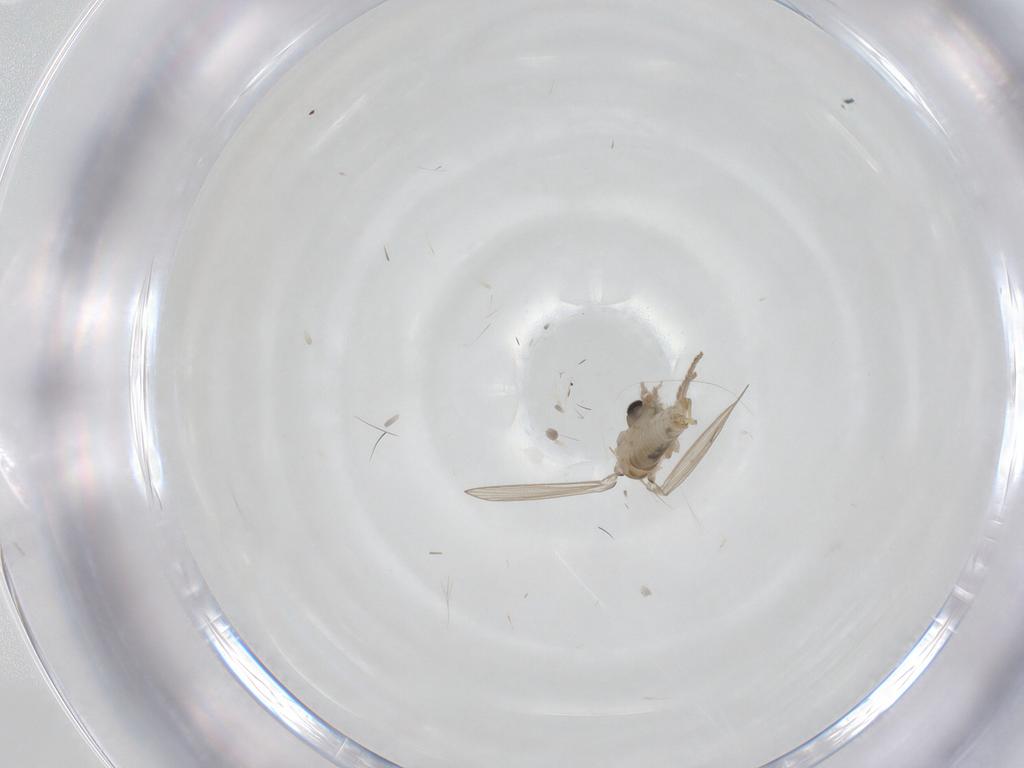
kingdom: Animalia
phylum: Arthropoda
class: Insecta
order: Diptera
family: Psychodidae
